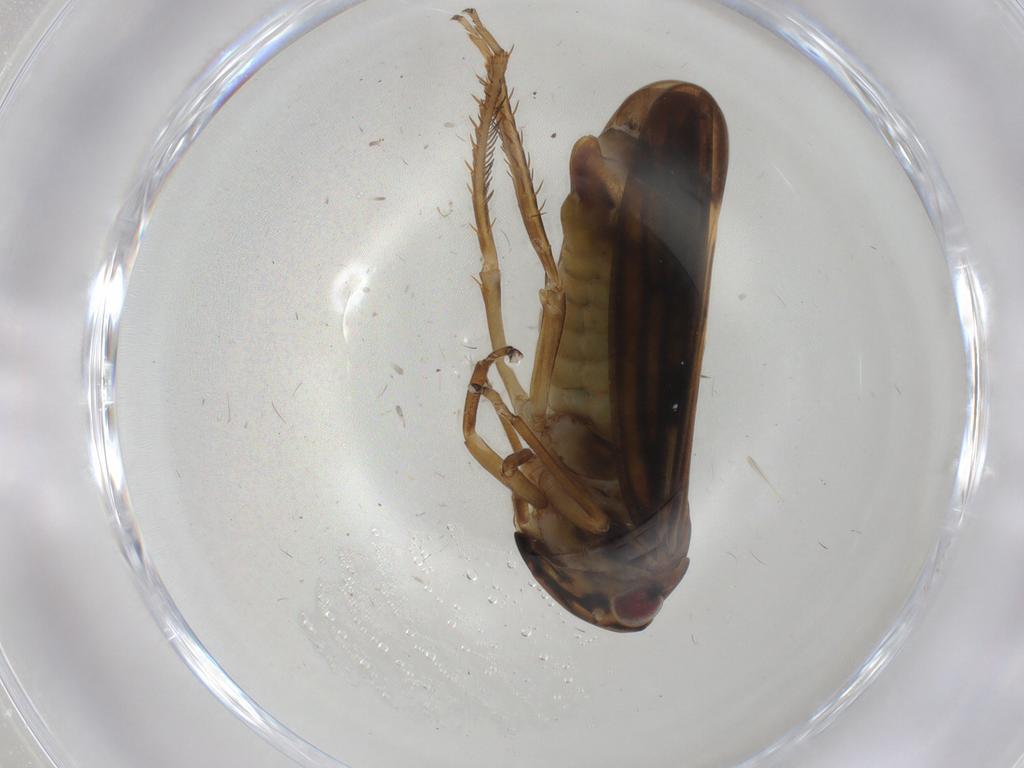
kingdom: Animalia
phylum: Arthropoda
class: Insecta
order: Hemiptera
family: Cicadellidae
